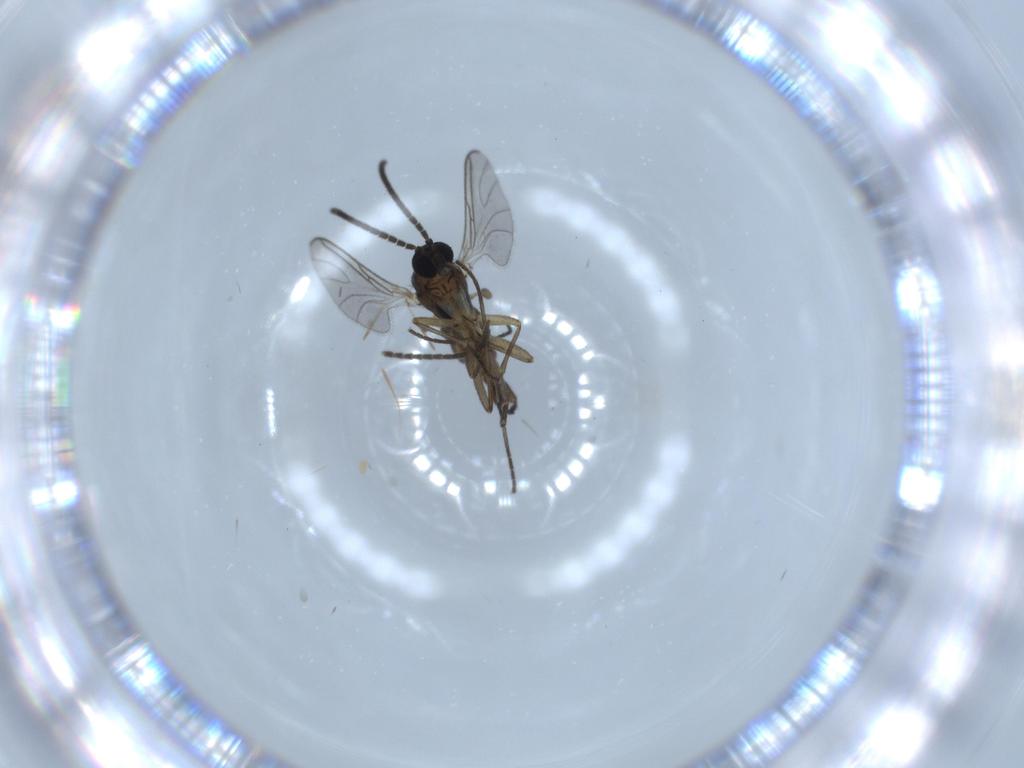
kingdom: Animalia
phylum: Arthropoda
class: Insecta
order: Diptera
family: Sciaridae
